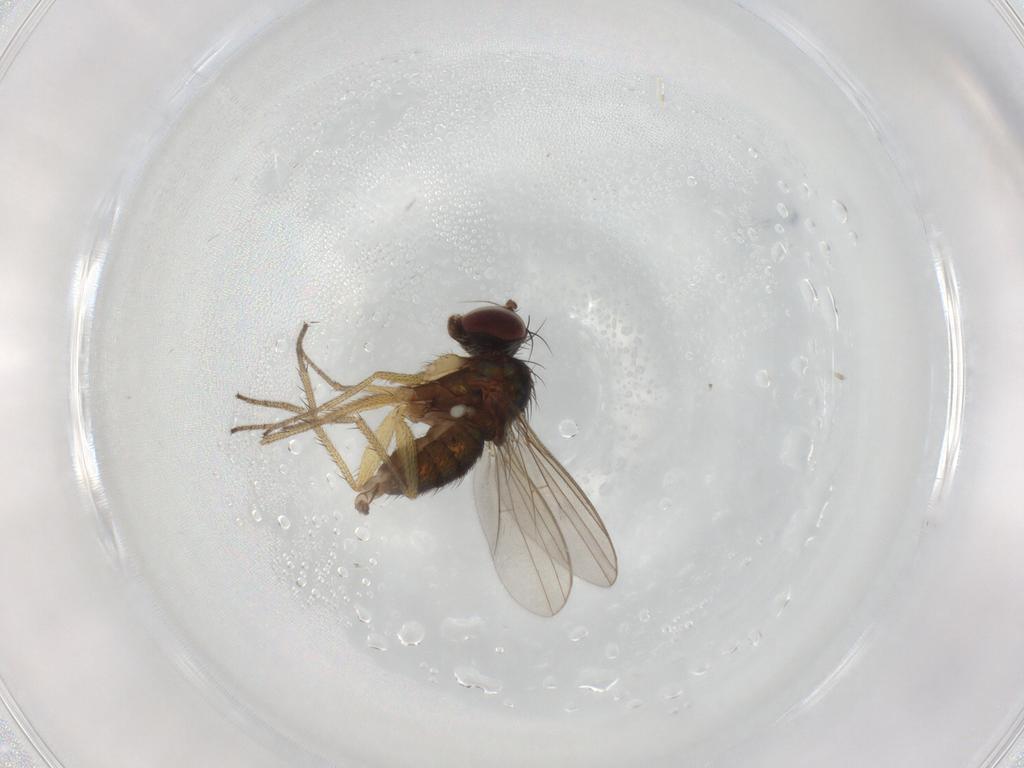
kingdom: Animalia
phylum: Arthropoda
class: Insecta
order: Diptera
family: Dolichopodidae
